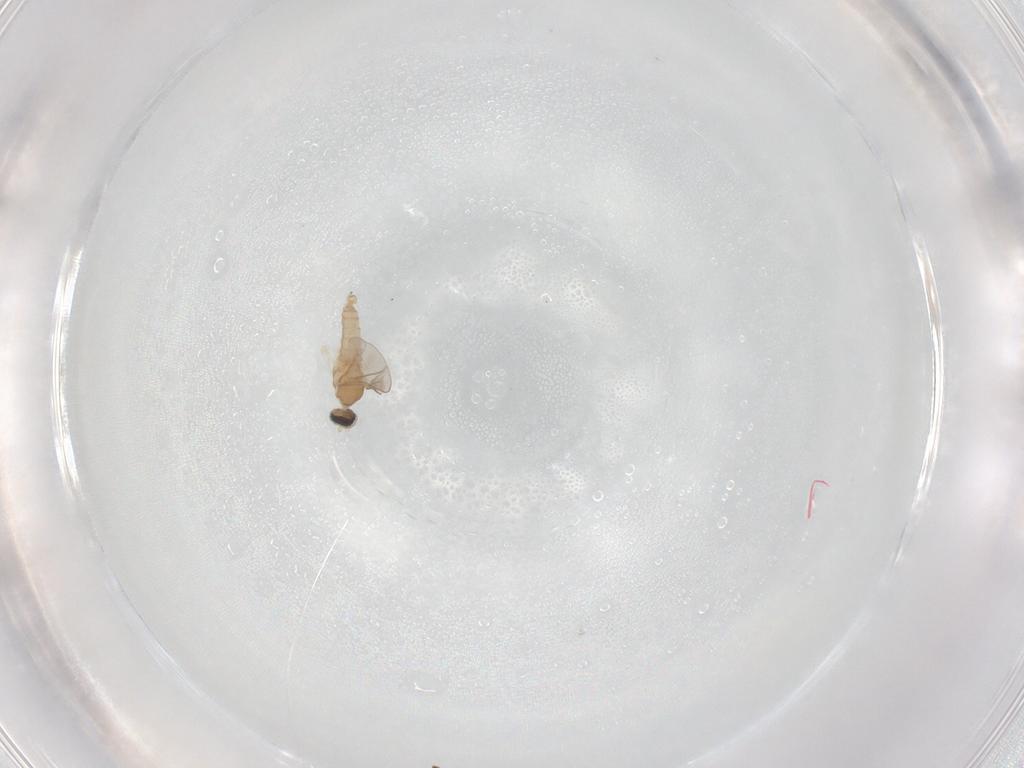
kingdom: Animalia
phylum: Arthropoda
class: Insecta
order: Diptera
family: Cecidomyiidae
